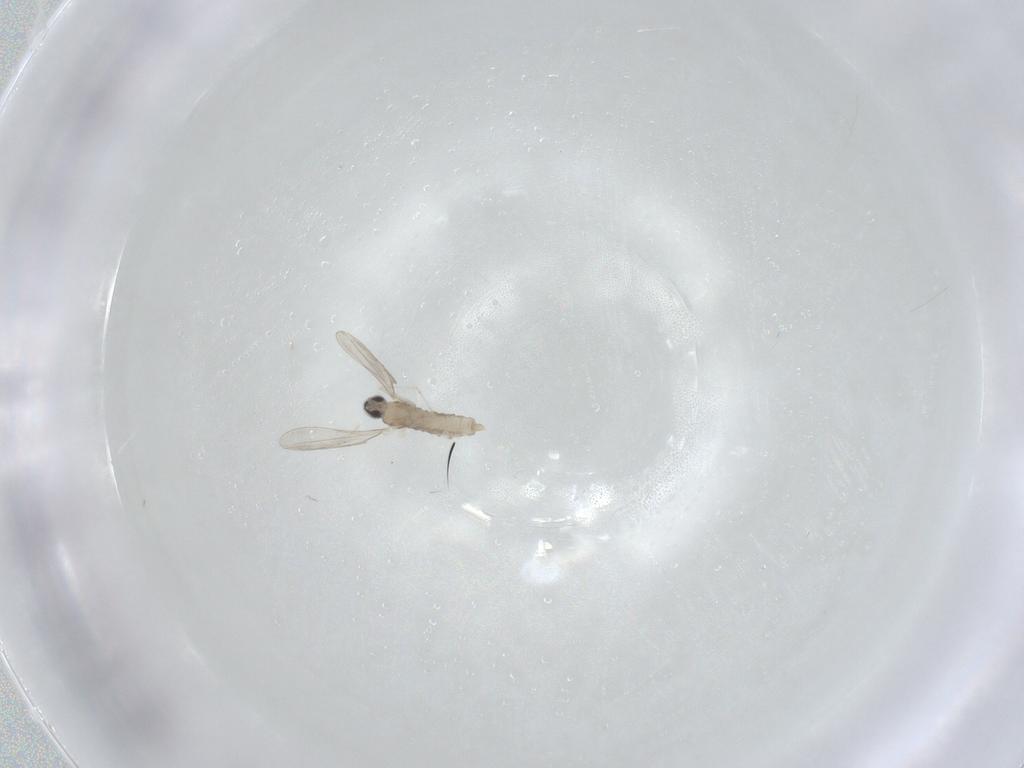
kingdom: Animalia
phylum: Arthropoda
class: Insecta
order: Diptera
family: Cecidomyiidae
